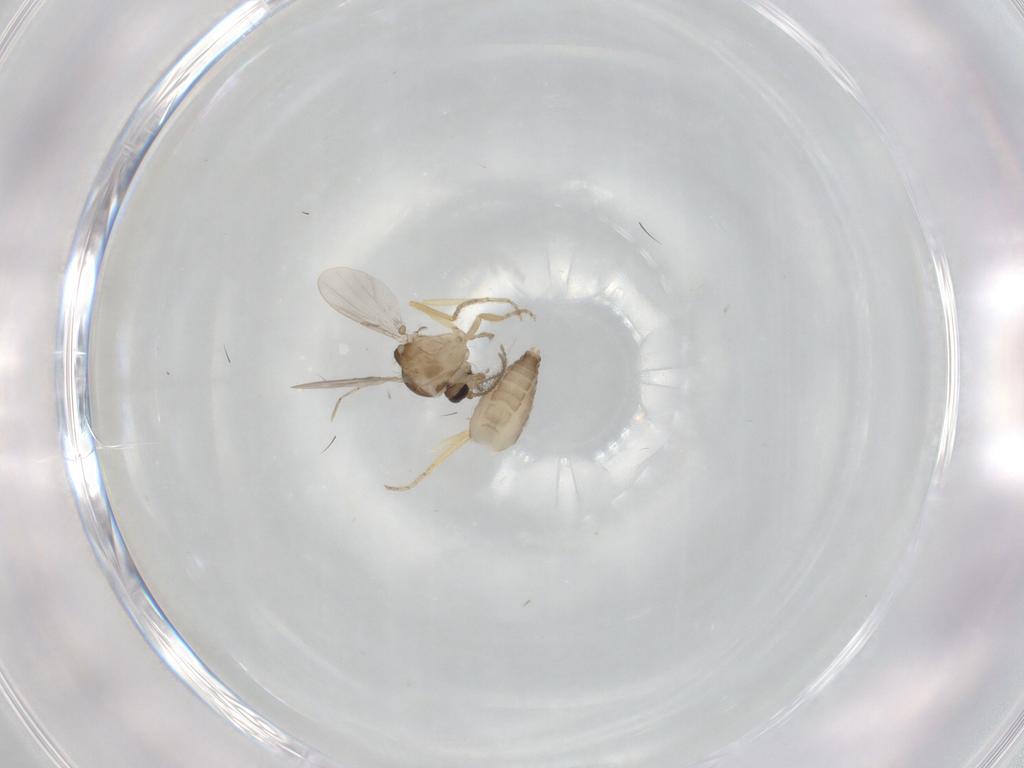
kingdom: Animalia
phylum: Arthropoda
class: Insecta
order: Diptera
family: Ceratopogonidae
